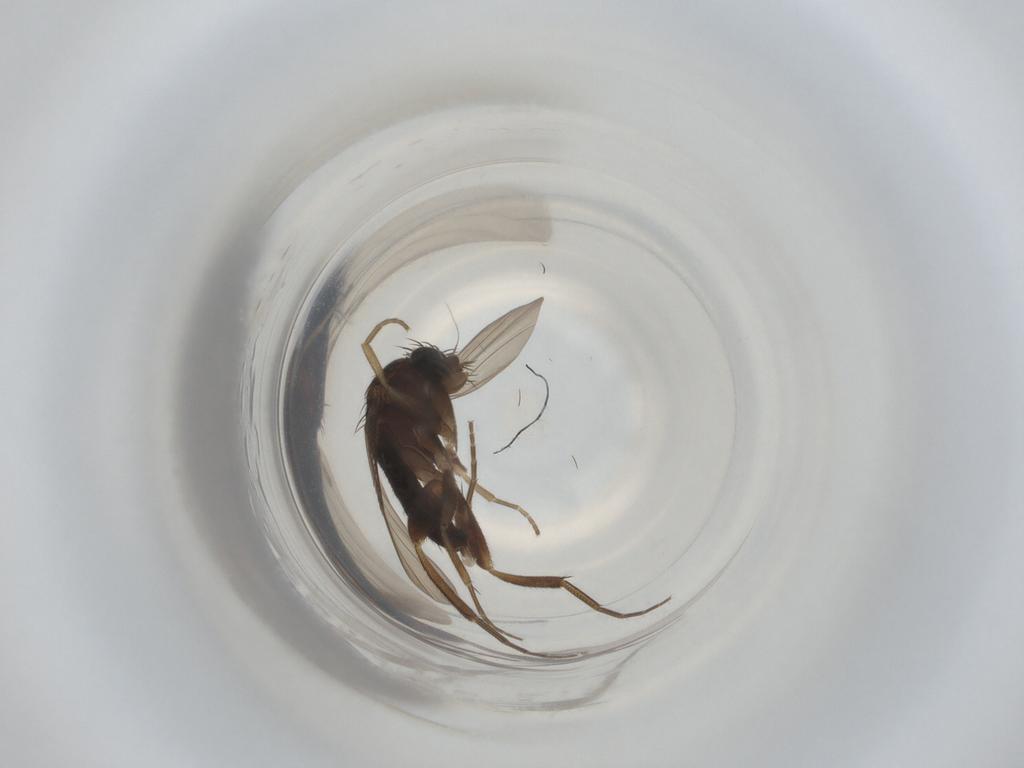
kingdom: Animalia
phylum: Arthropoda
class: Insecta
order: Diptera
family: Phoridae
